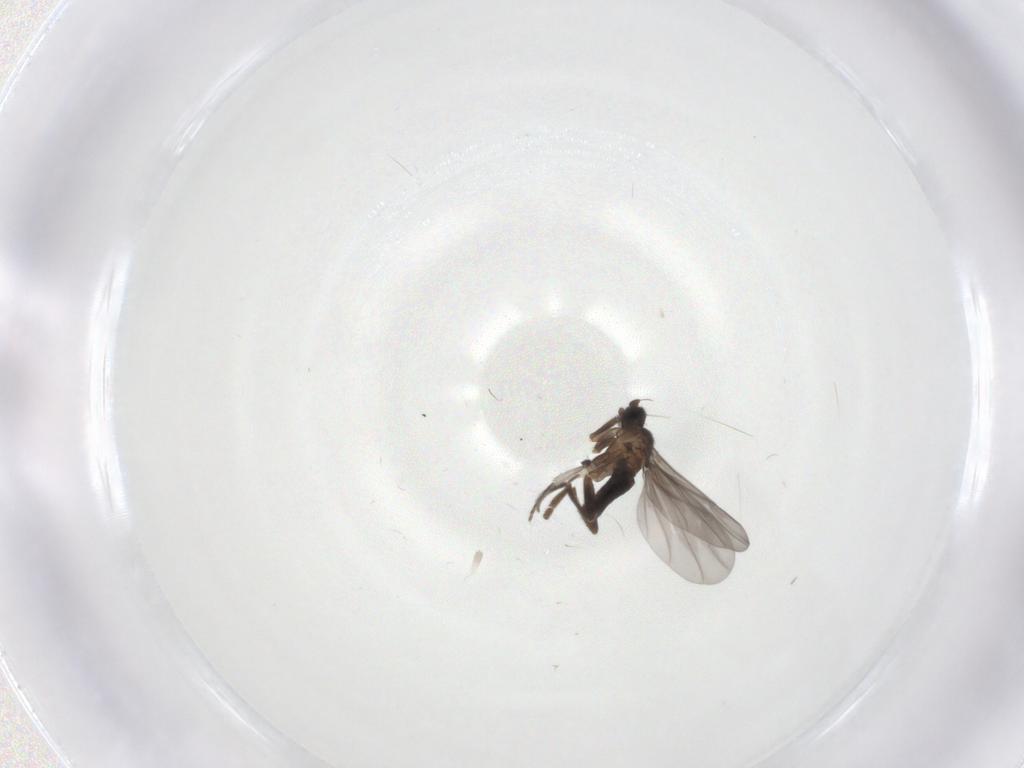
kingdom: Animalia
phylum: Arthropoda
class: Insecta
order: Diptera
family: Phoridae
